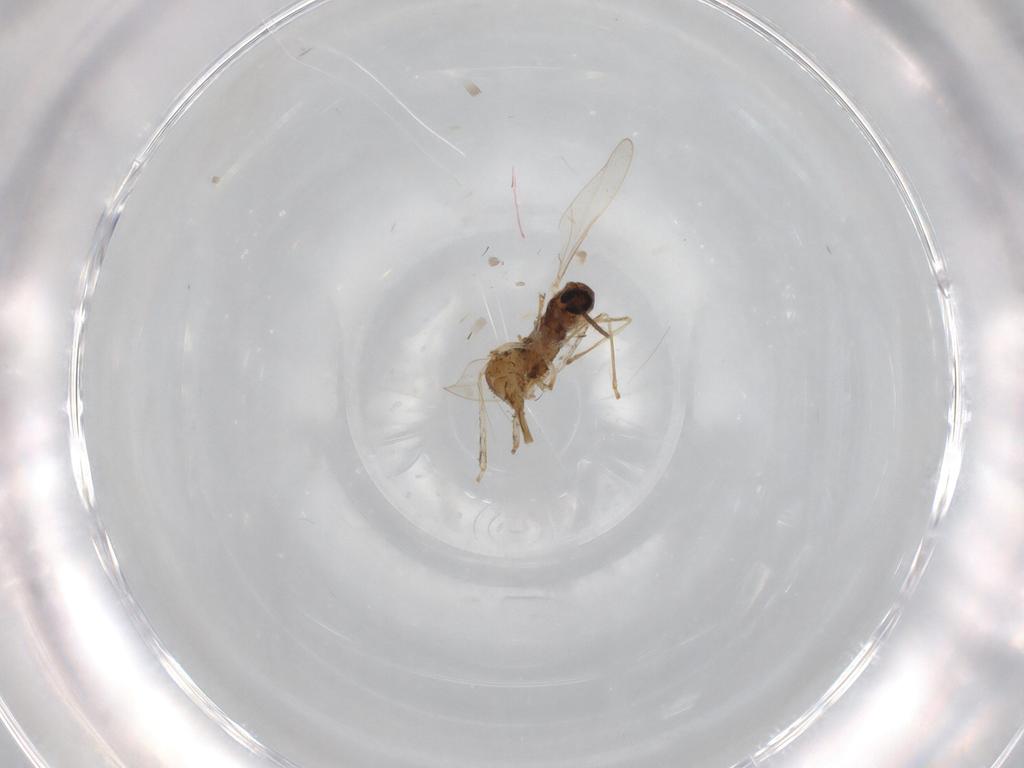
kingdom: Animalia
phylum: Arthropoda
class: Insecta
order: Diptera
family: Cecidomyiidae
